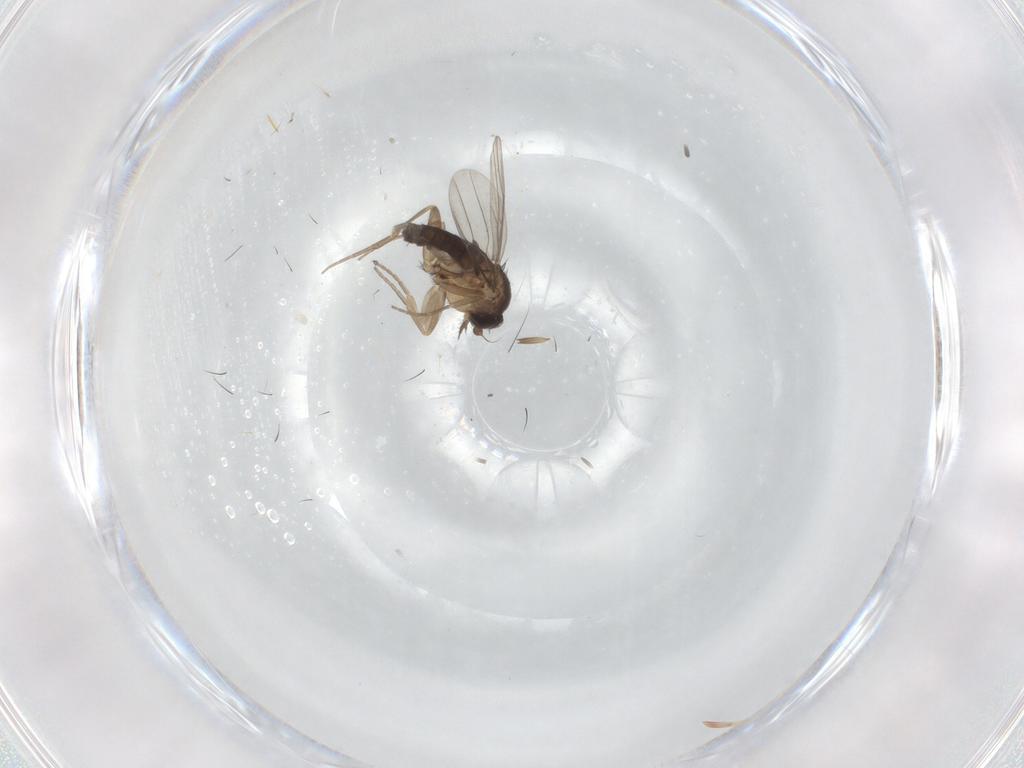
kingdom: Animalia
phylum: Arthropoda
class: Insecta
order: Diptera
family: Phoridae
